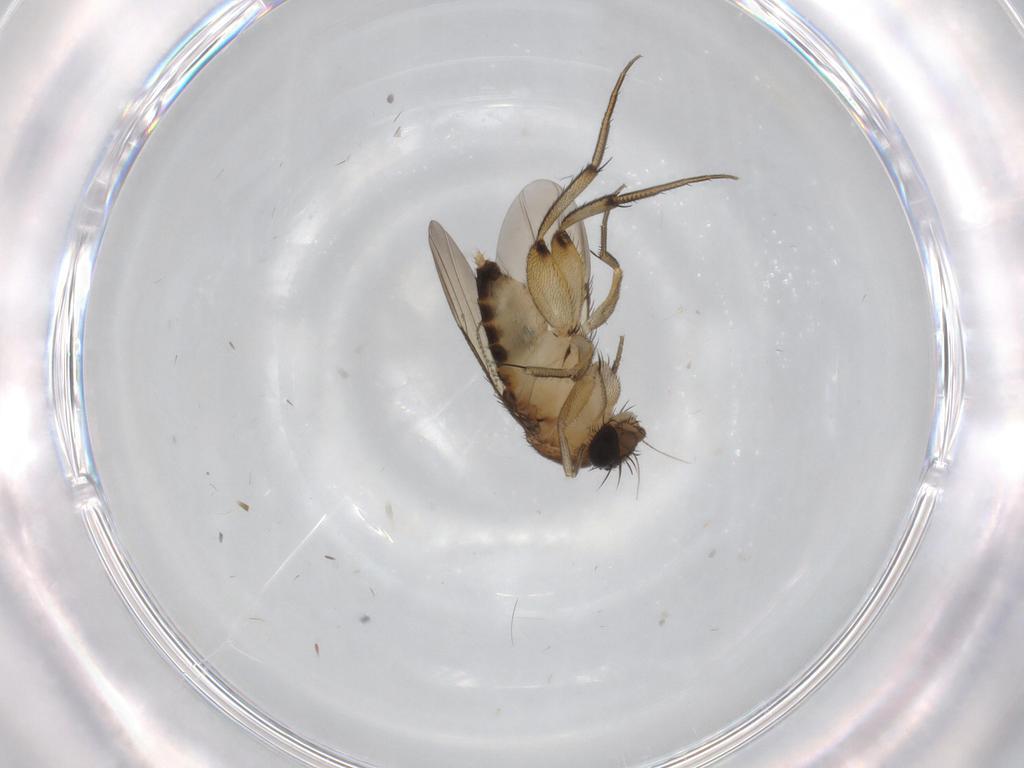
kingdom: Animalia
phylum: Arthropoda
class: Insecta
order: Diptera
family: Phoridae
